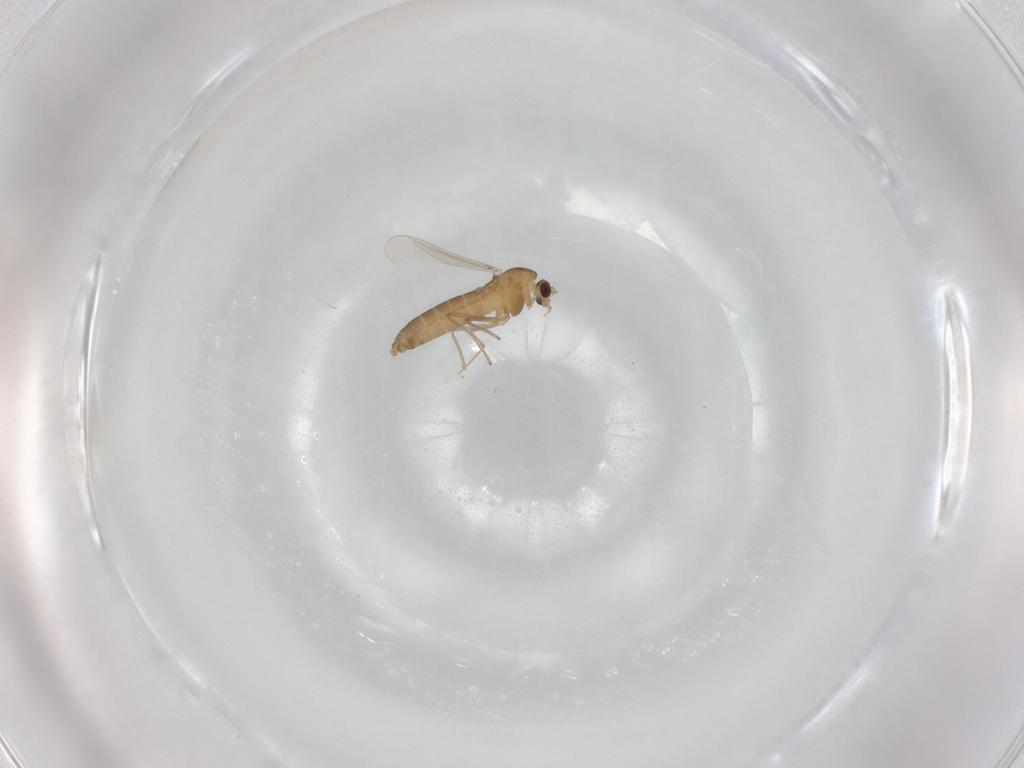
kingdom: Animalia
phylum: Arthropoda
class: Insecta
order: Diptera
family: Chironomidae
